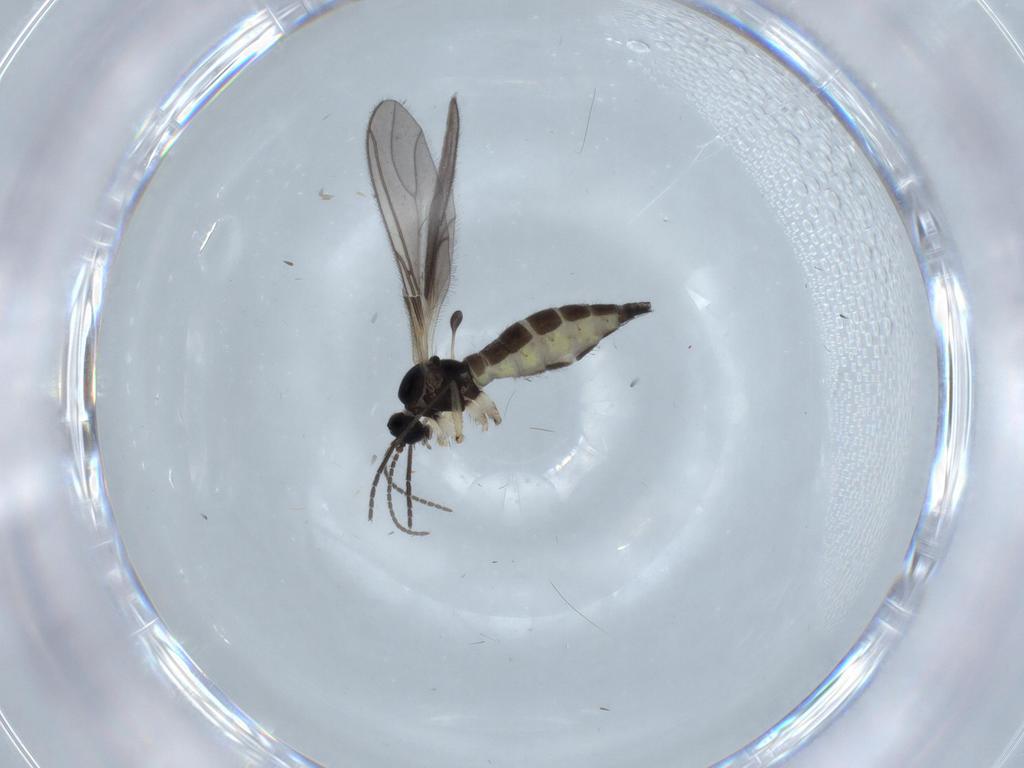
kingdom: Animalia
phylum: Arthropoda
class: Insecta
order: Diptera
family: Sciaridae
